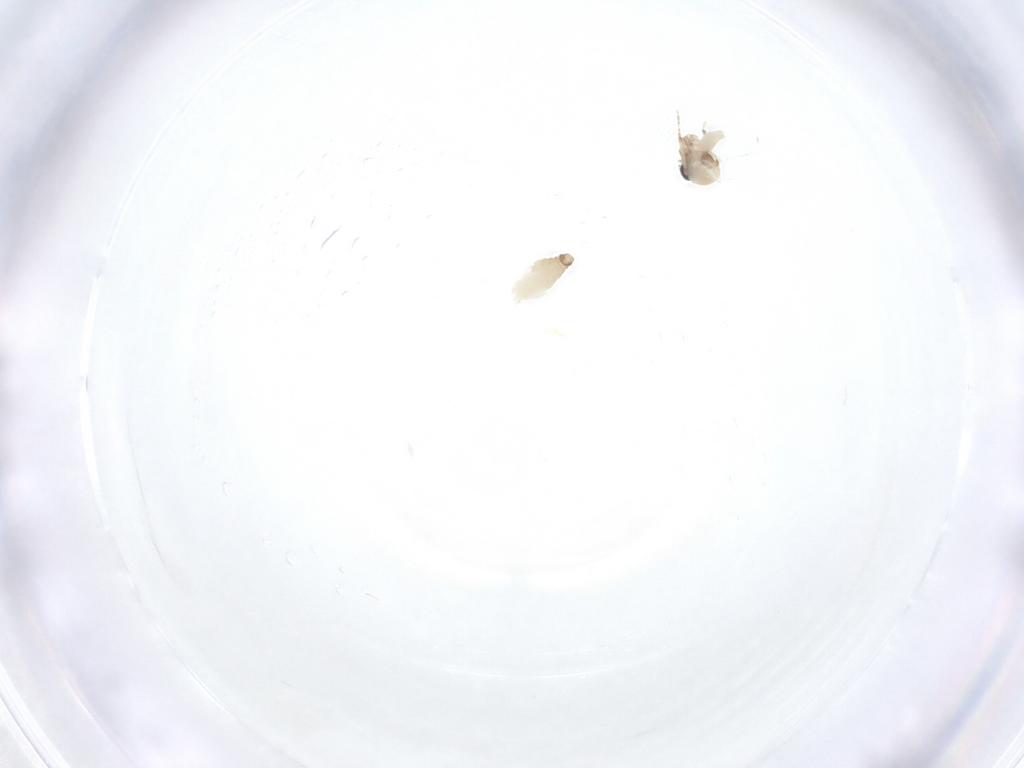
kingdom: Animalia
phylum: Arthropoda
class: Insecta
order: Diptera
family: Ceratopogonidae
